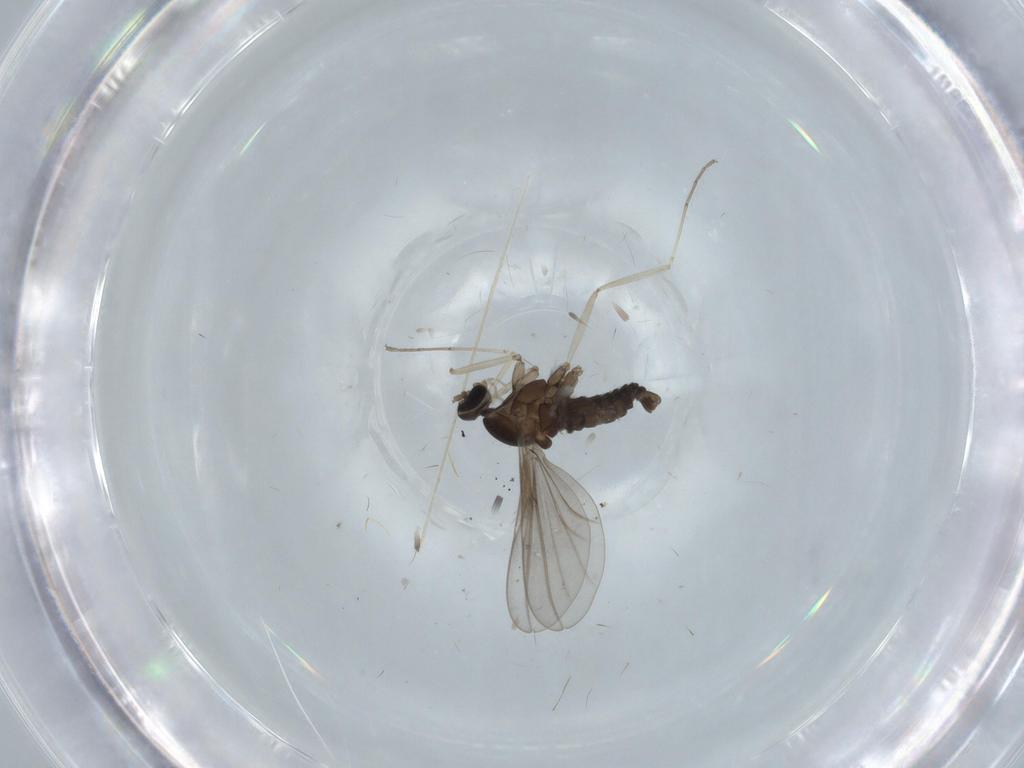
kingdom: Animalia
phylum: Arthropoda
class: Insecta
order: Diptera
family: Cecidomyiidae
